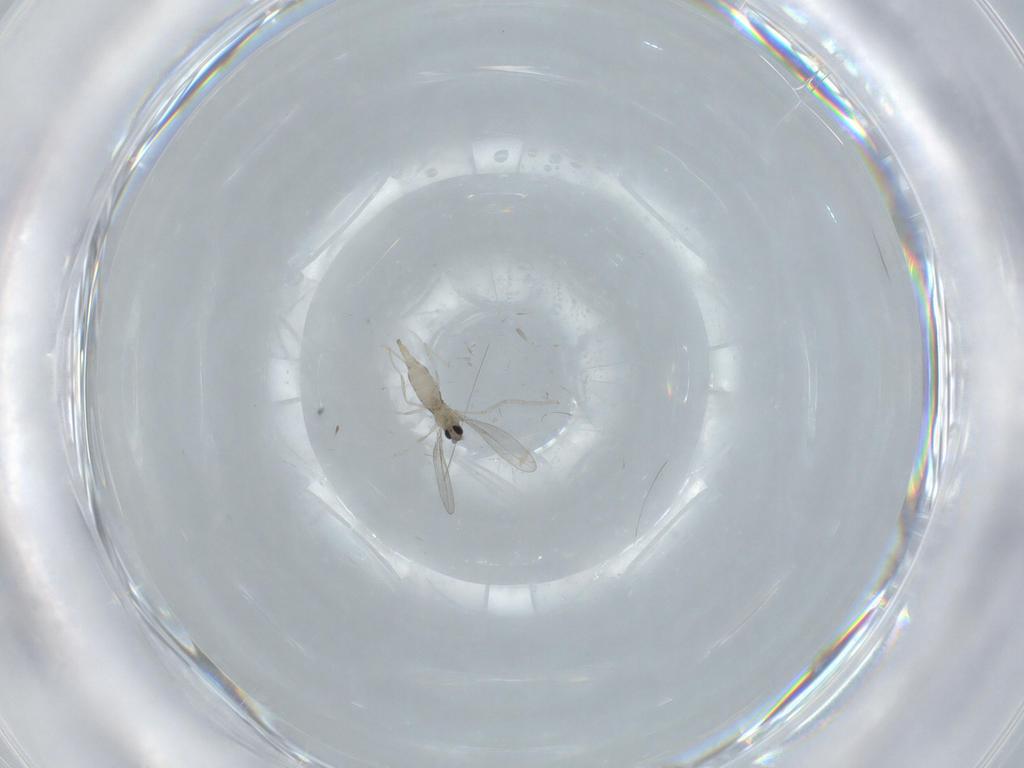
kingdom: Animalia
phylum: Arthropoda
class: Insecta
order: Diptera
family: Cecidomyiidae
